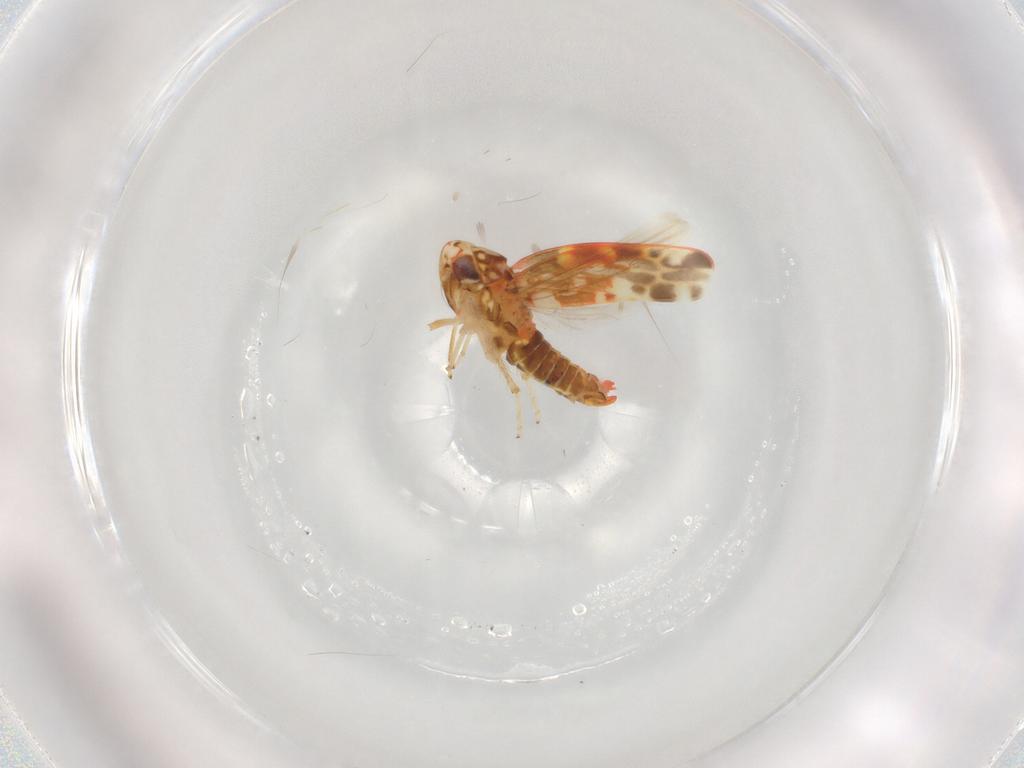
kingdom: Animalia
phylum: Arthropoda
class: Insecta
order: Hemiptera
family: Cicadellidae
